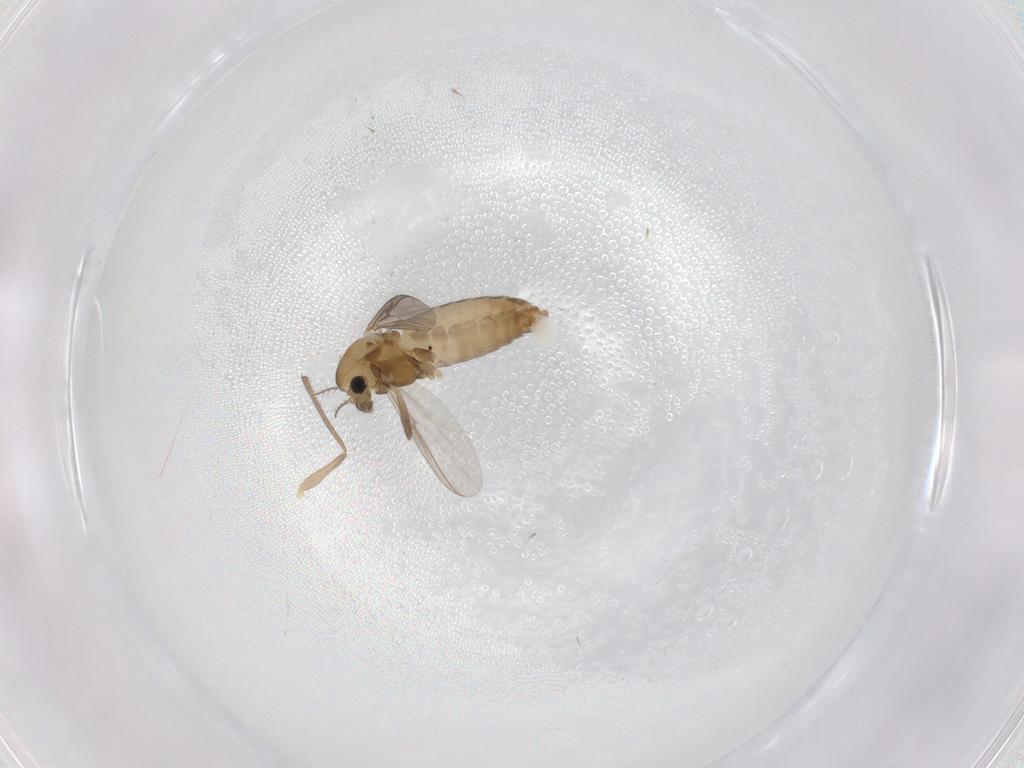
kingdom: Animalia
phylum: Arthropoda
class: Insecta
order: Diptera
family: Chironomidae
